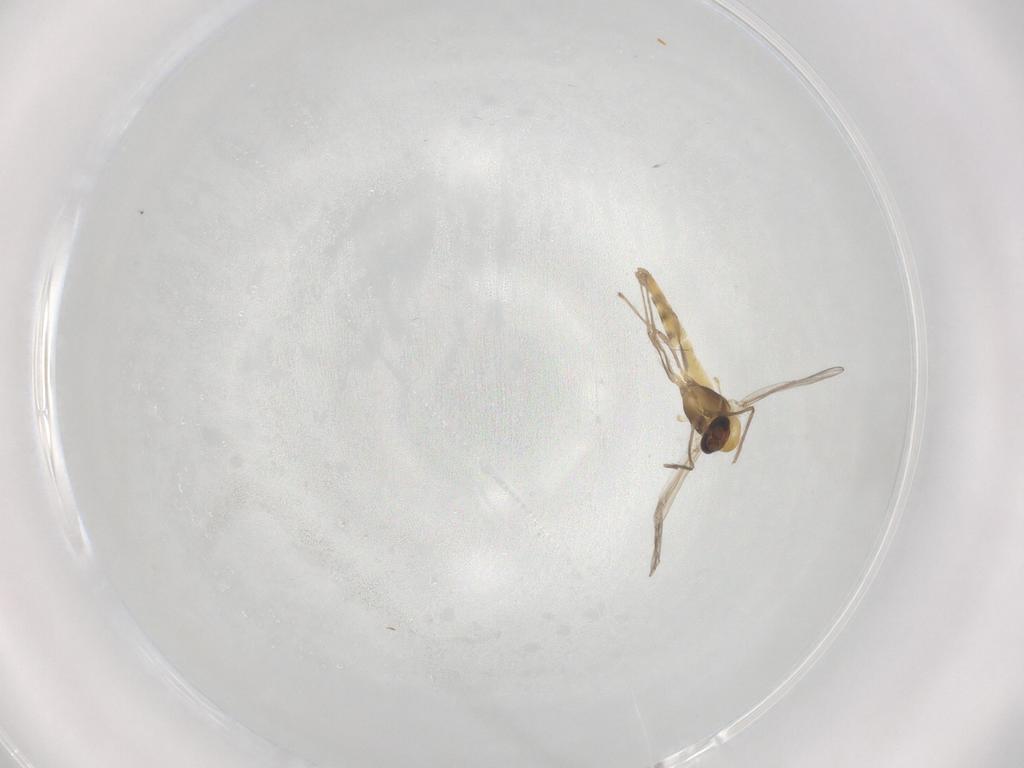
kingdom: Animalia
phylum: Arthropoda
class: Insecta
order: Diptera
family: Chironomidae
